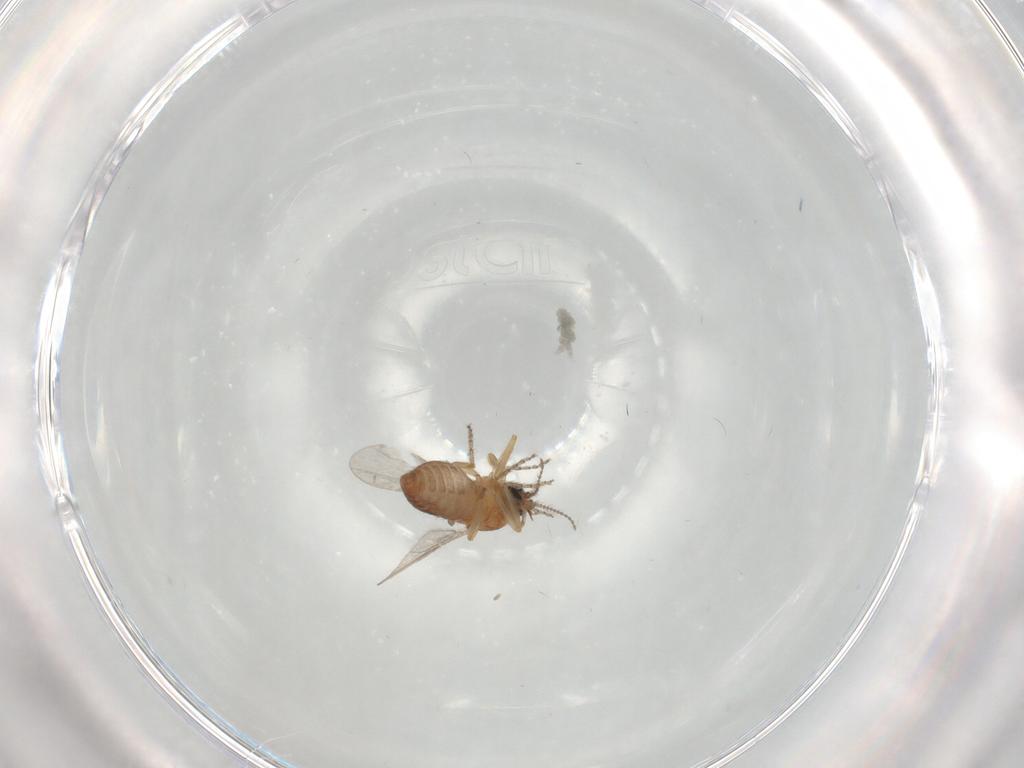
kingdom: Animalia
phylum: Arthropoda
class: Insecta
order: Diptera
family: Ceratopogonidae
